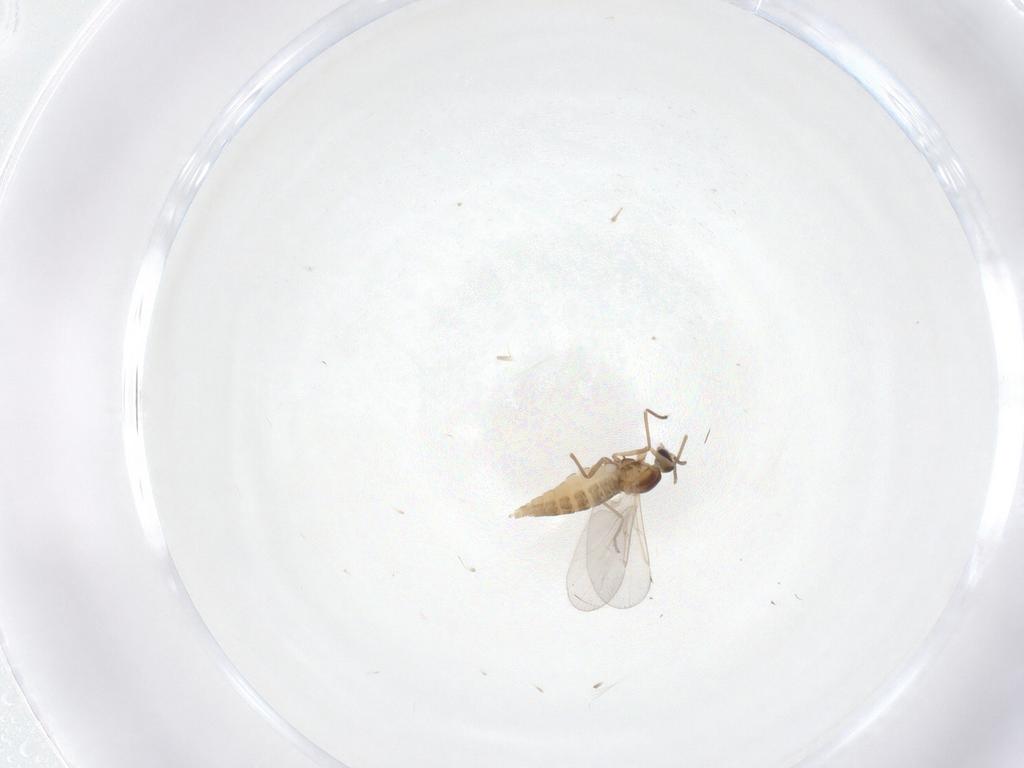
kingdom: Animalia
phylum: Arthropoda
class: Insecta
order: Diptera
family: Cecidomyiidae
